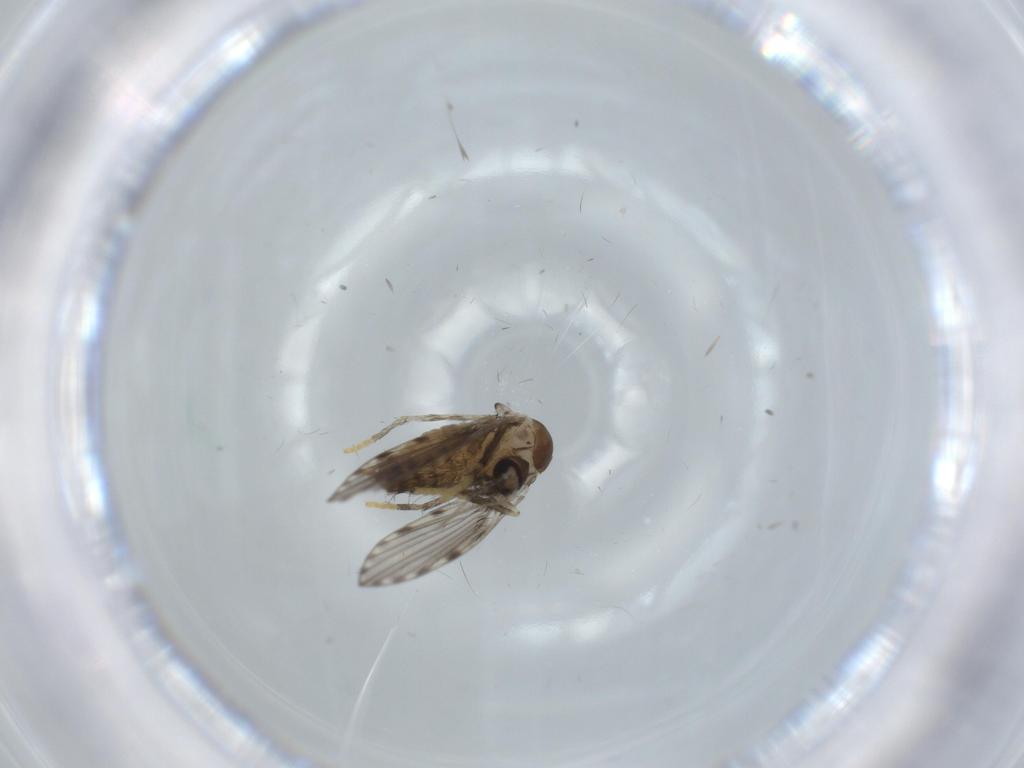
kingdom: Animalia
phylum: Arthropoda
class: Insecta
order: Diptera
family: Psychodidae
